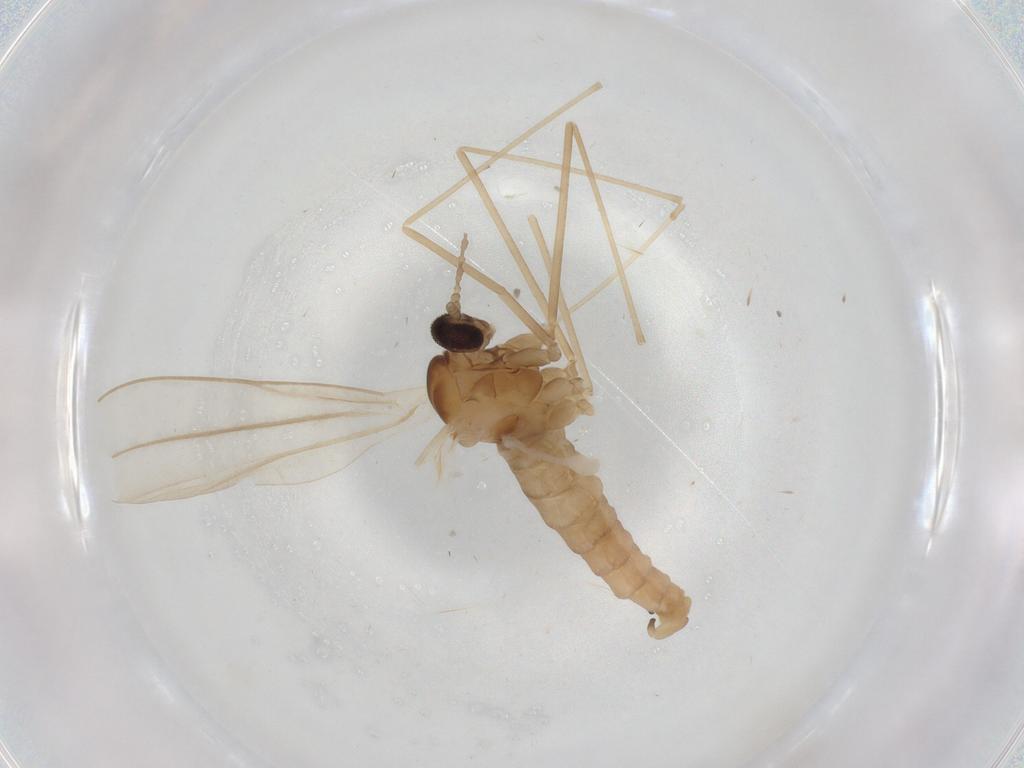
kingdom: Animalia
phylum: Arthropoda
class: Insecta
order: Diptera
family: Cecidomyiidae
